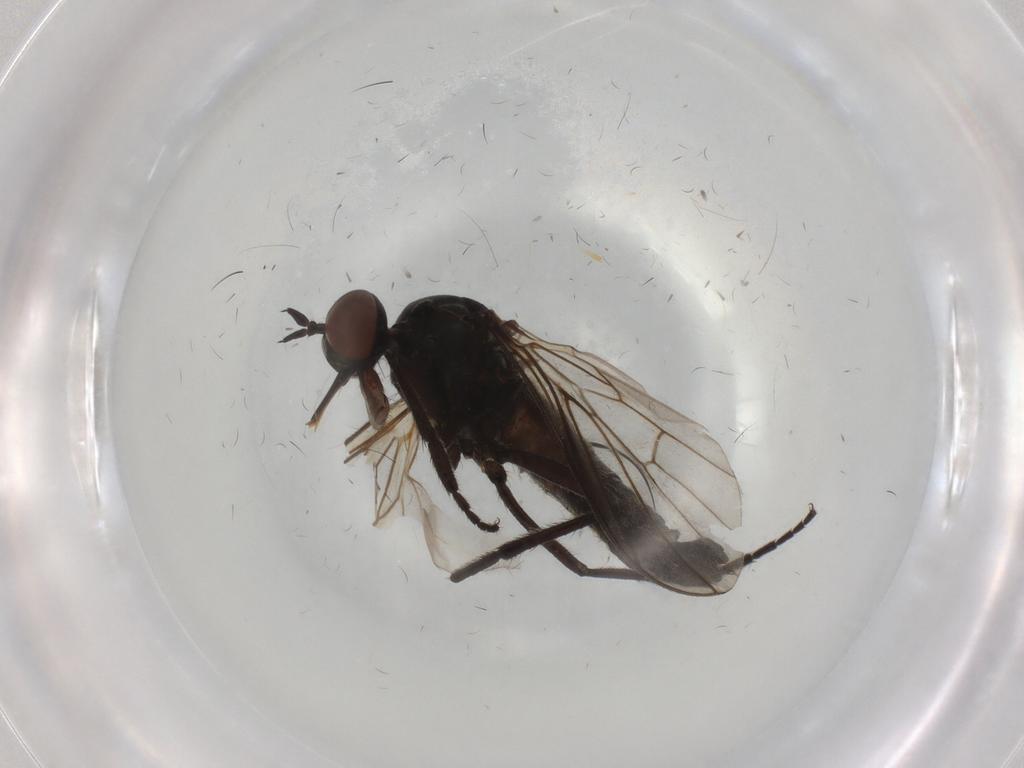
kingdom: Animalia
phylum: Arthropoda
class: Insecta
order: Diptera
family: Empididae
